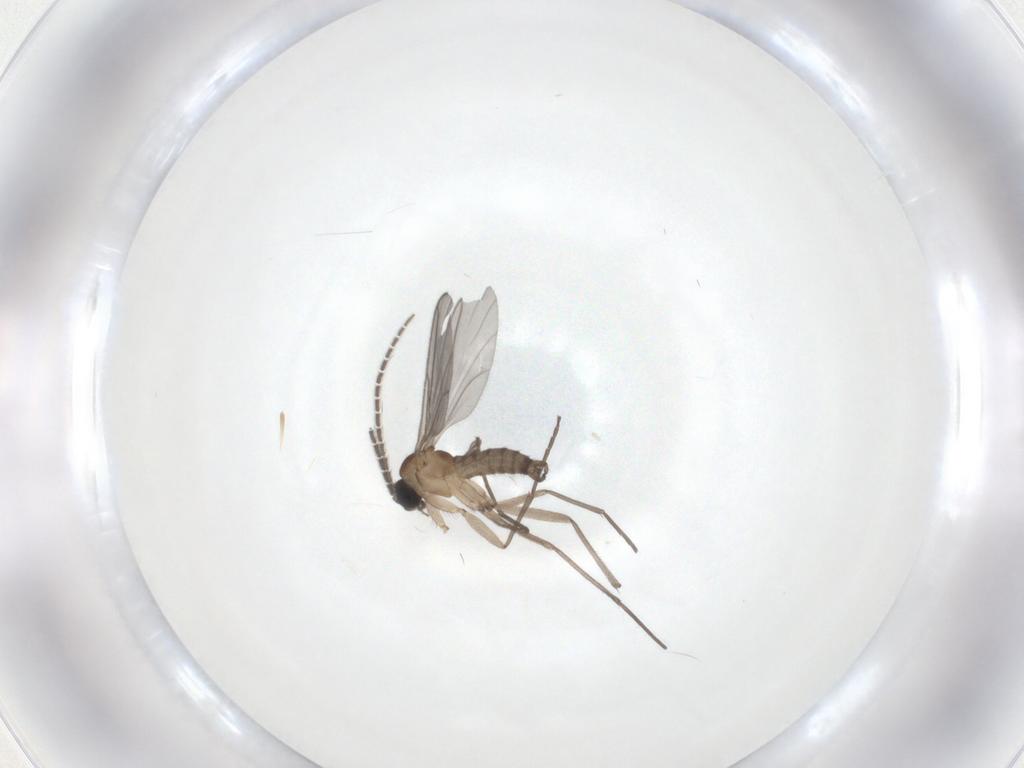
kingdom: Animalia
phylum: Arthropoda
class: Insecta
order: Diptera
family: Sciaridae
